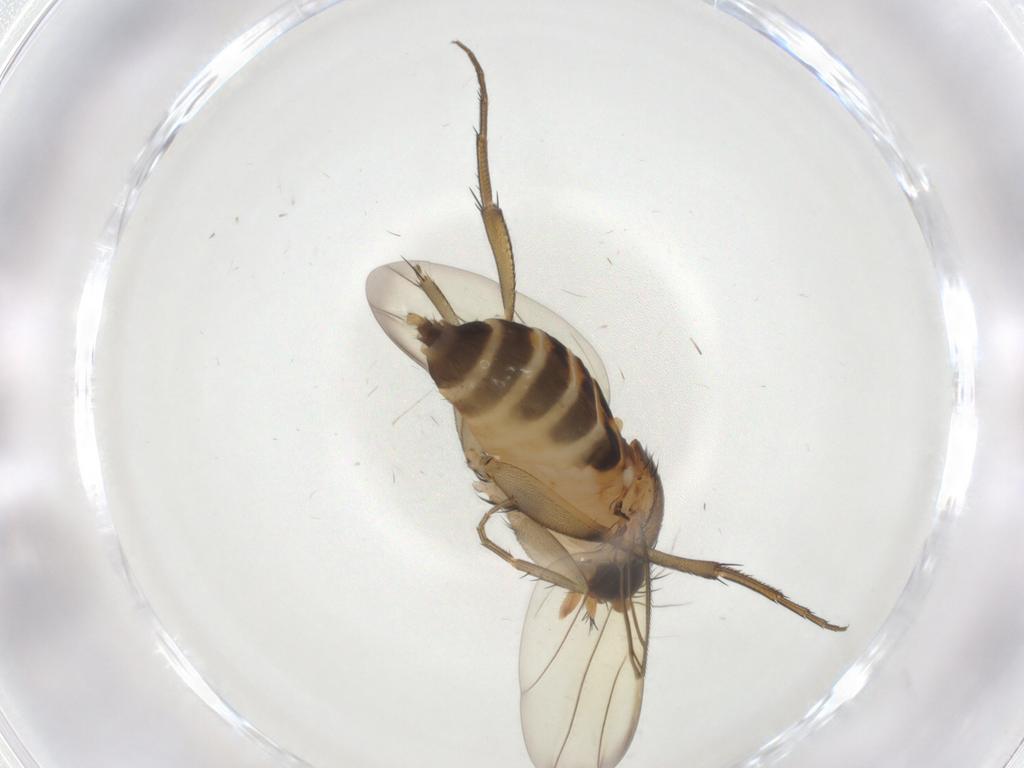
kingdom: Animalia
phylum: Arthropoda
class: Insecta
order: Diptera
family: Phoridae
